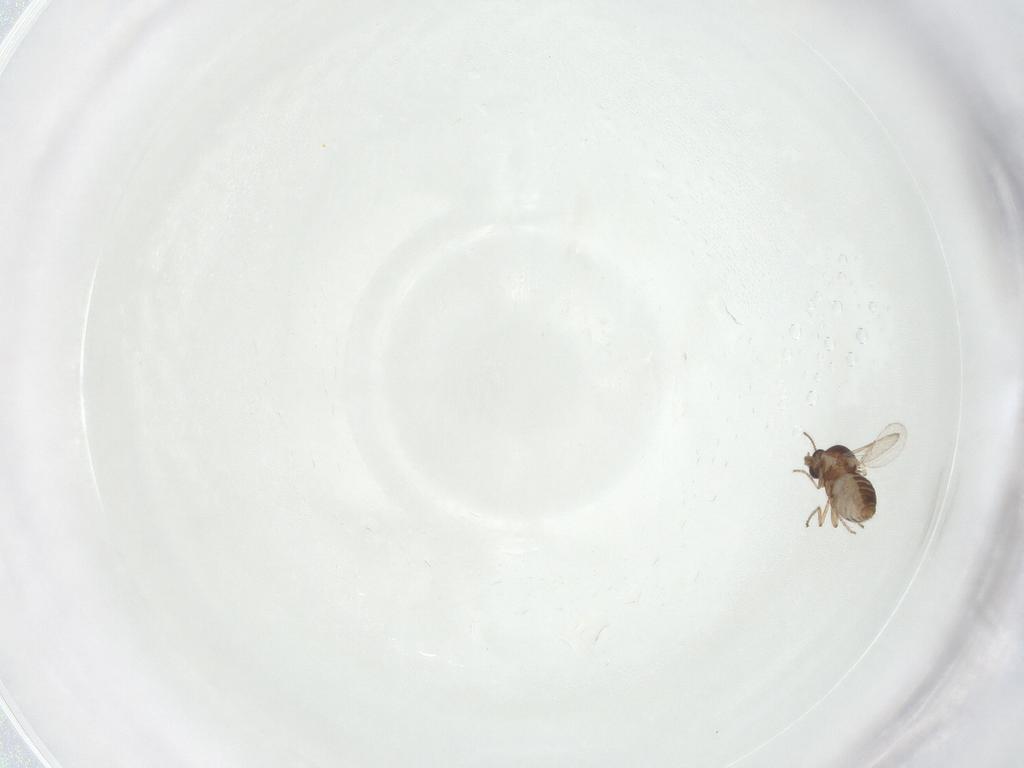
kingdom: Animalia
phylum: Arthropoda
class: Insecta
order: Diptera
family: Ceratopogonidae
